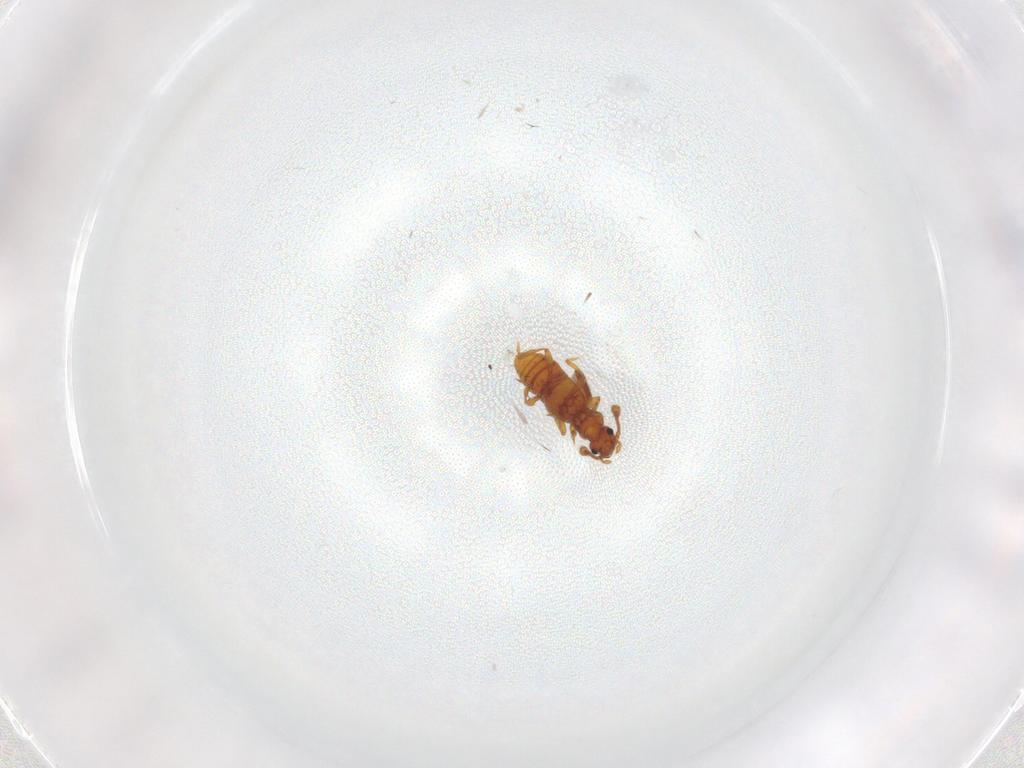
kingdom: Animalia
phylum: Arthropoda
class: Insecta
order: Coleoptera
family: Staphylinidae
